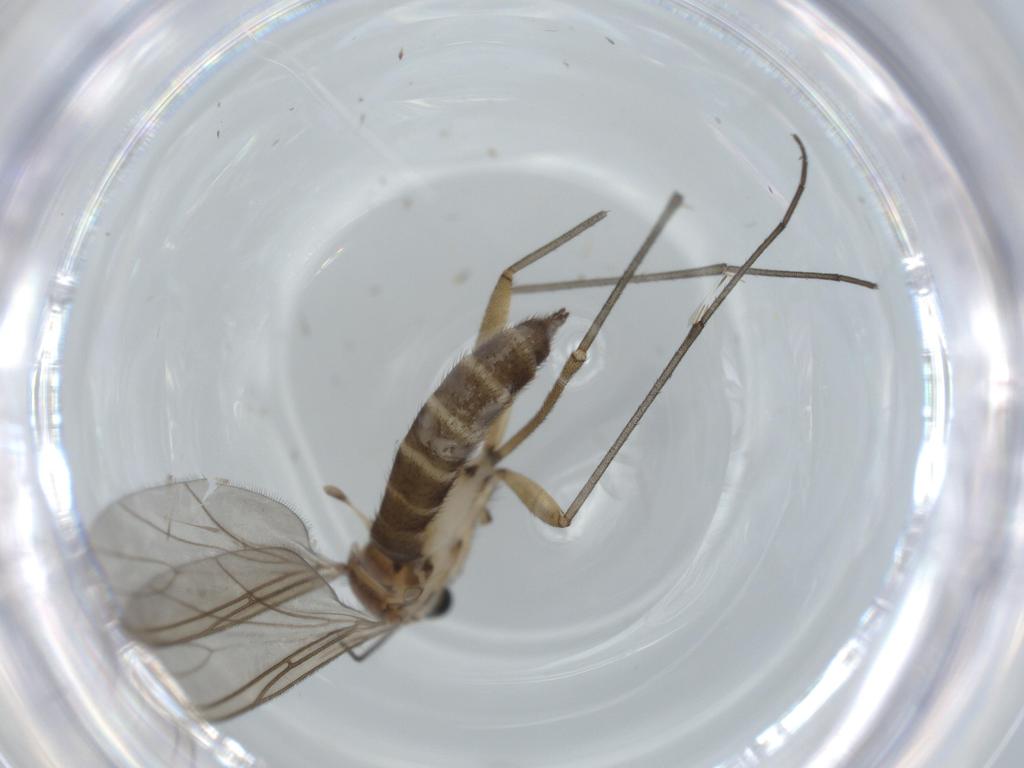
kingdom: Animalia
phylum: Arthropoda
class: Insecta
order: Diptera
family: Sciaridae
